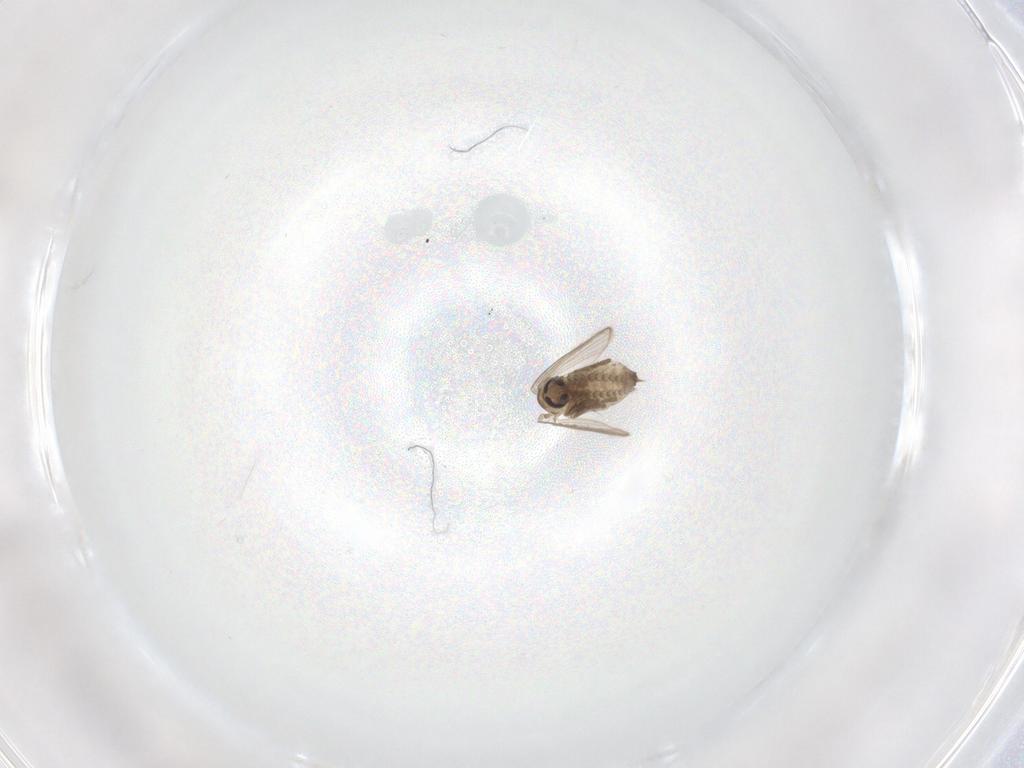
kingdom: Animalia
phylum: Arthropoda
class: Insecta
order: Diptera
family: Psychodidae
